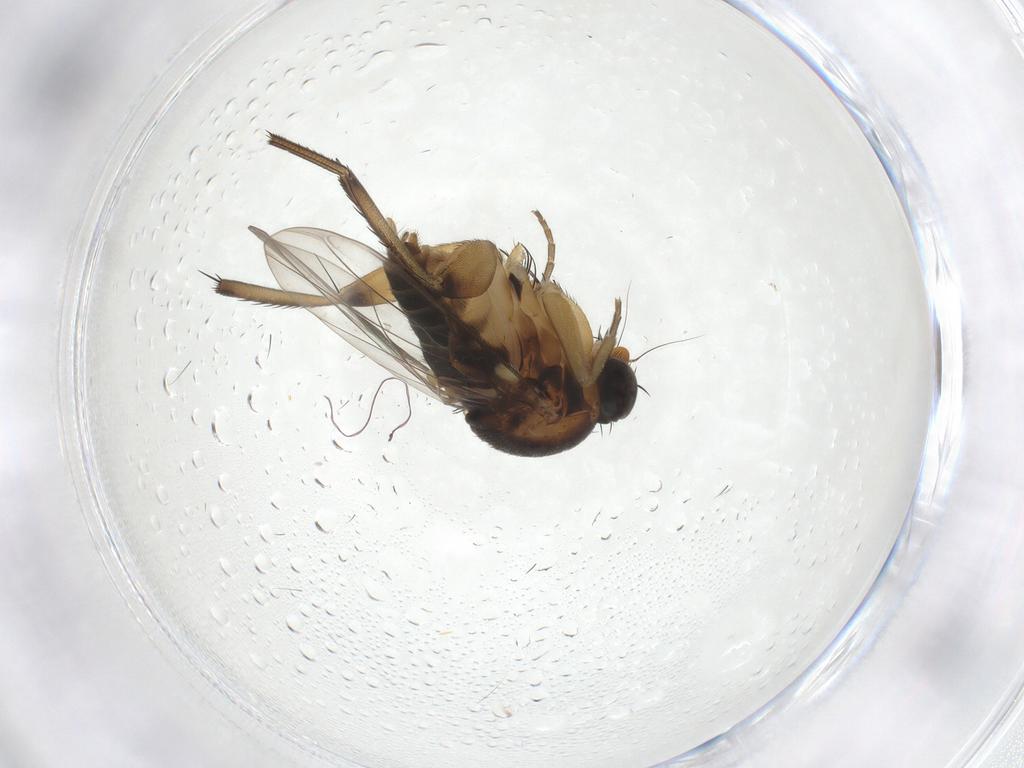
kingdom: Animalia
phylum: Arthropoda
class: Insecta
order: Diptera
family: Phoridae
